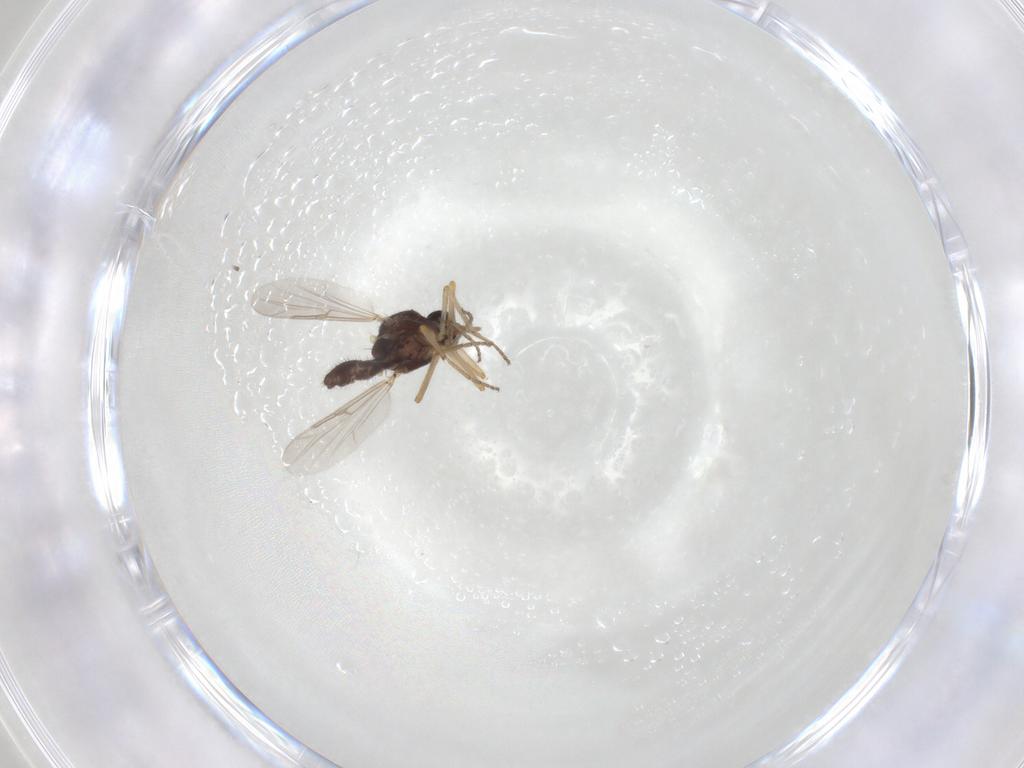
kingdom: Animalia
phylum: Arthropoda
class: Insecta
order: Diptera
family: Ceratopogonidae
